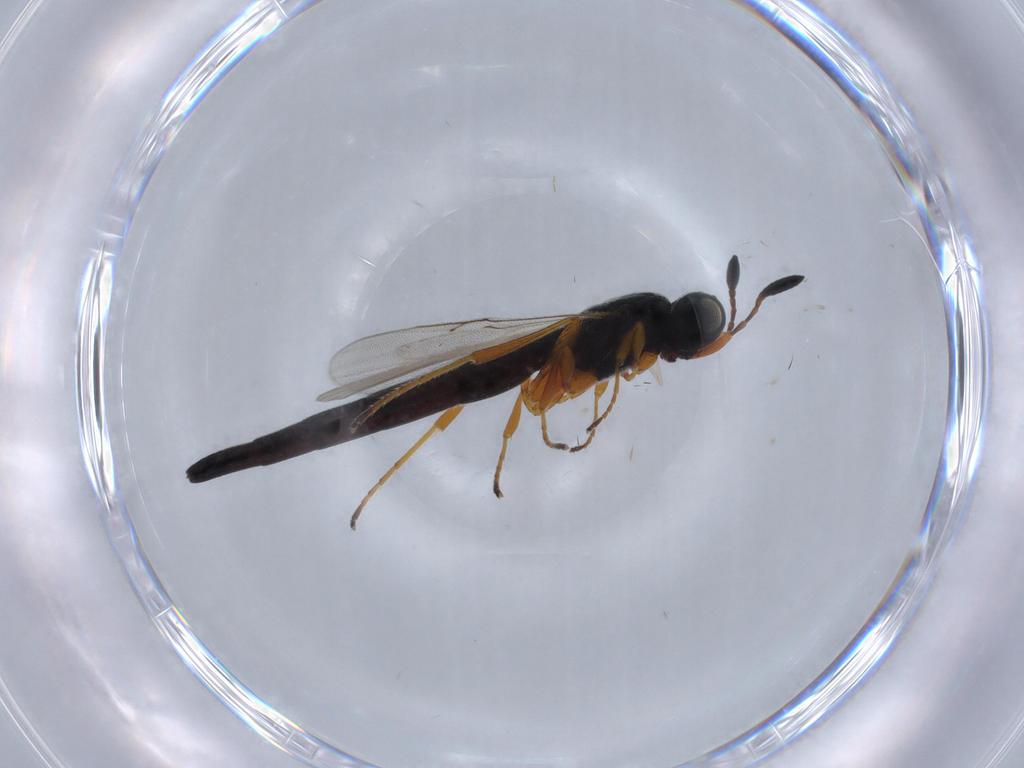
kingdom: Animalia
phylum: Arthropoda
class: Insecta
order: Hymenoptera
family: Scelionidae
